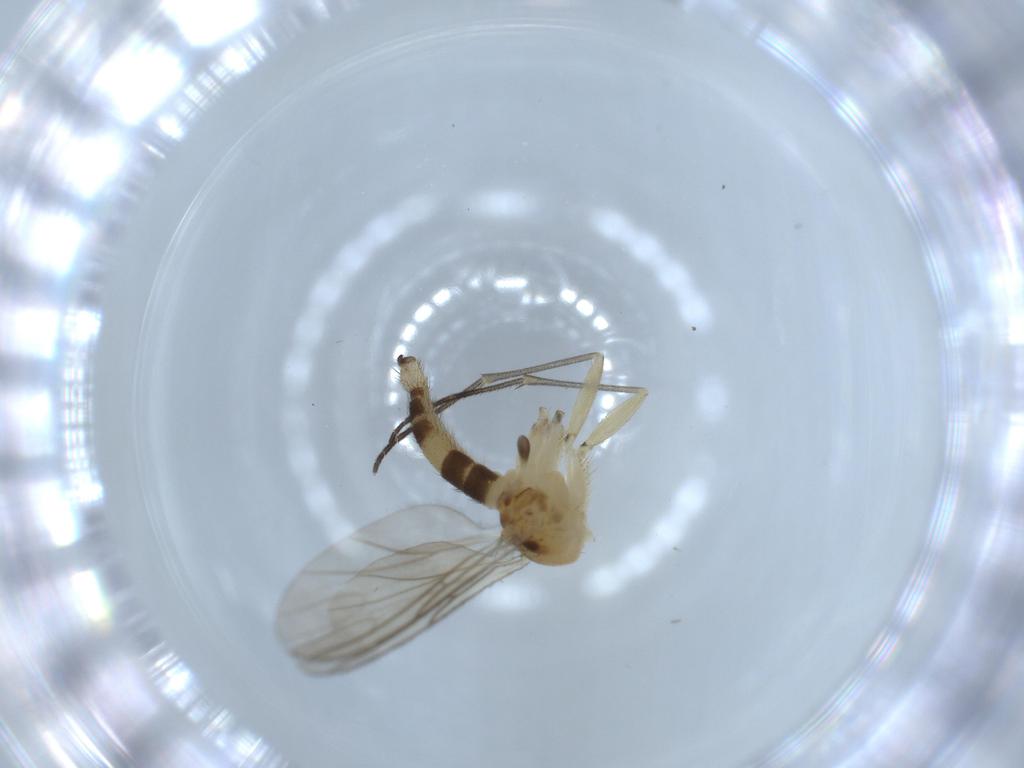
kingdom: Animalia
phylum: Arthropoda
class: Insecta
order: Diptera
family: Sciaridae
